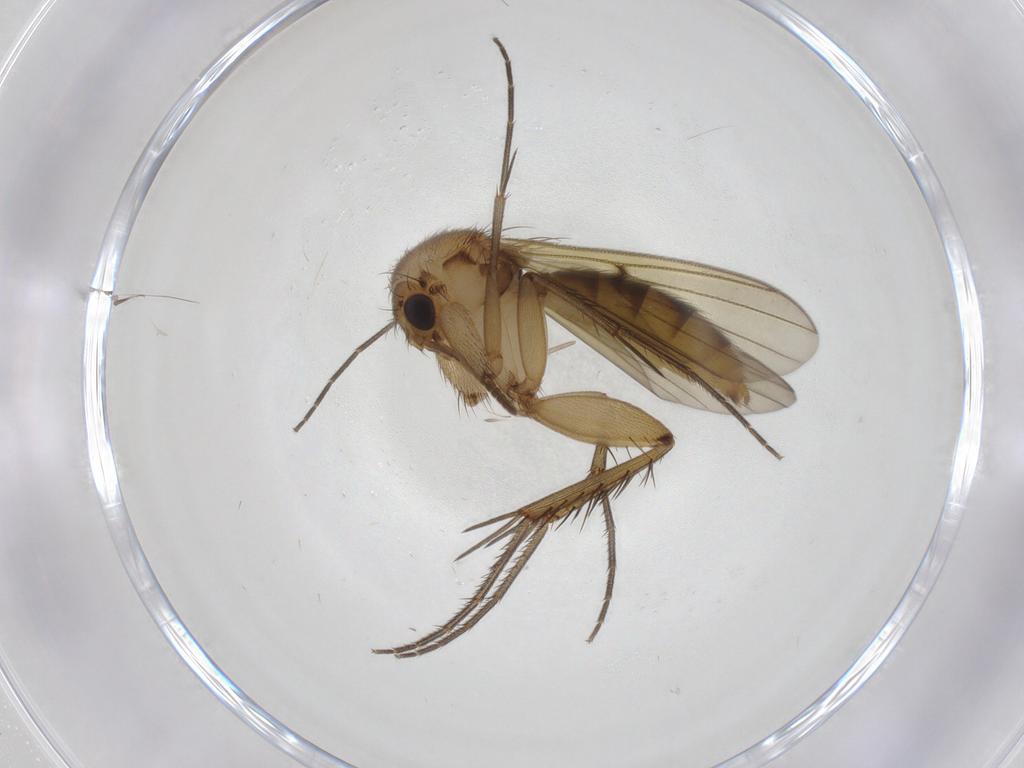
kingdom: Animalia
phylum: Arthropoda
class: Insecta
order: Diptera
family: Mycetophilidae
